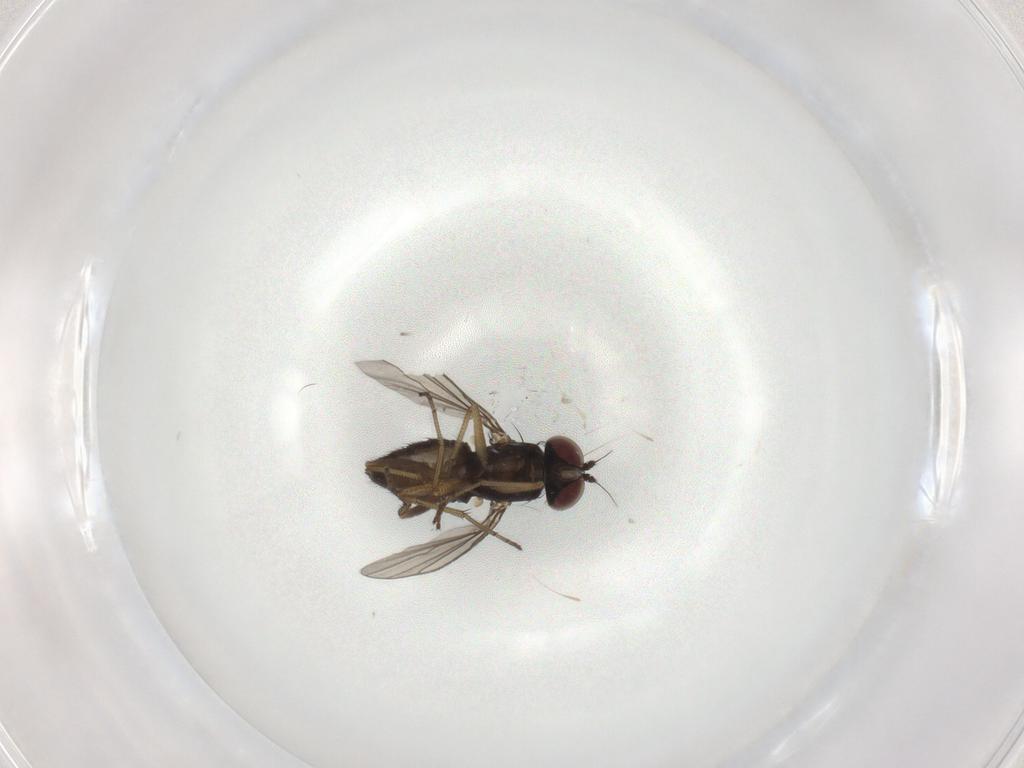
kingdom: Animalia
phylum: Arthropoda
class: Insecta
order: Diptera
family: Dolichopodidae
